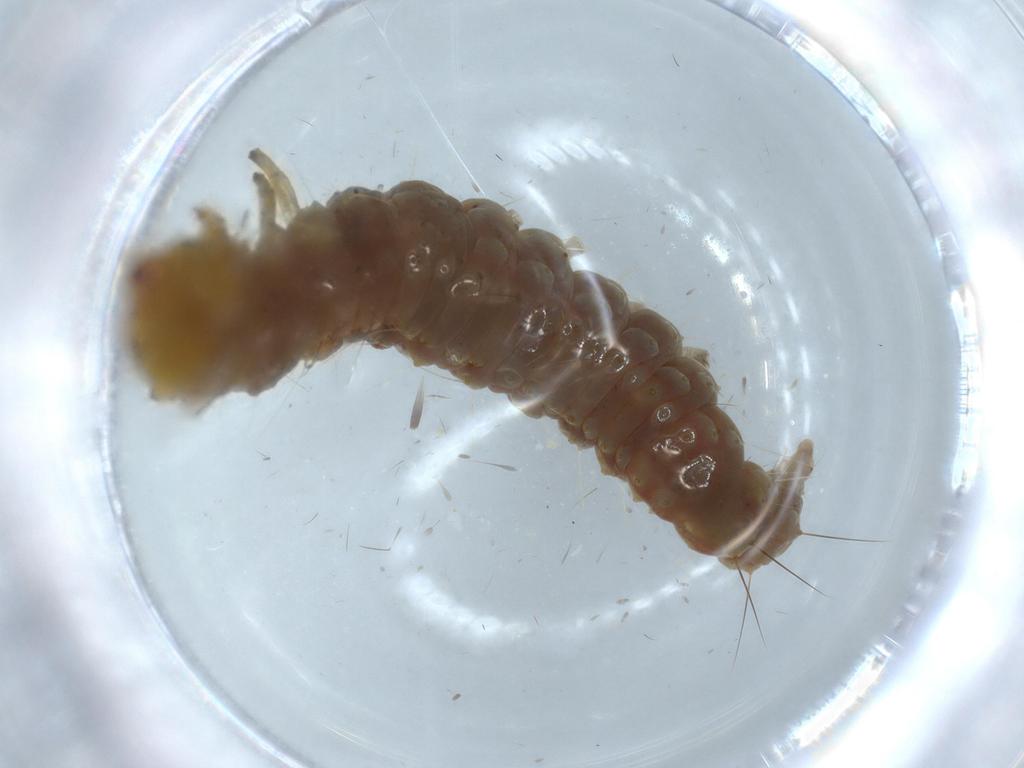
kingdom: Animalia
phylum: Arthropoda
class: Insecta
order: Lepidoptera
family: Choreutidae
